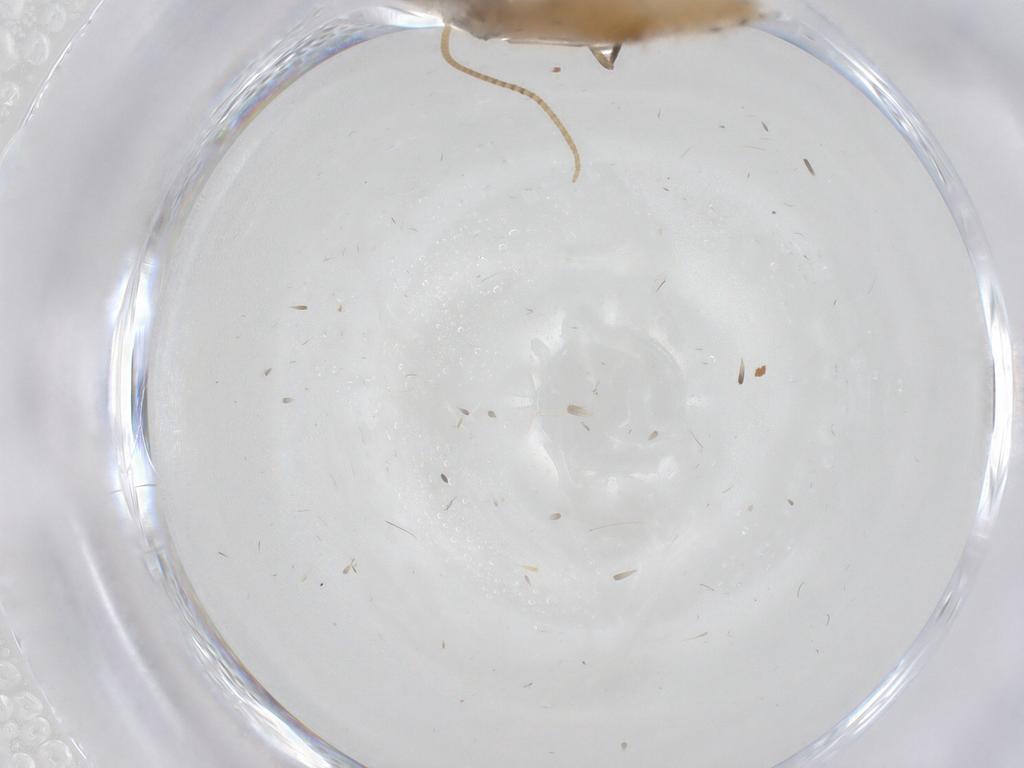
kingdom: Animalia
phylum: Arthropoda
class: Insecta
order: Lepidoptera
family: Bucculatricidae
